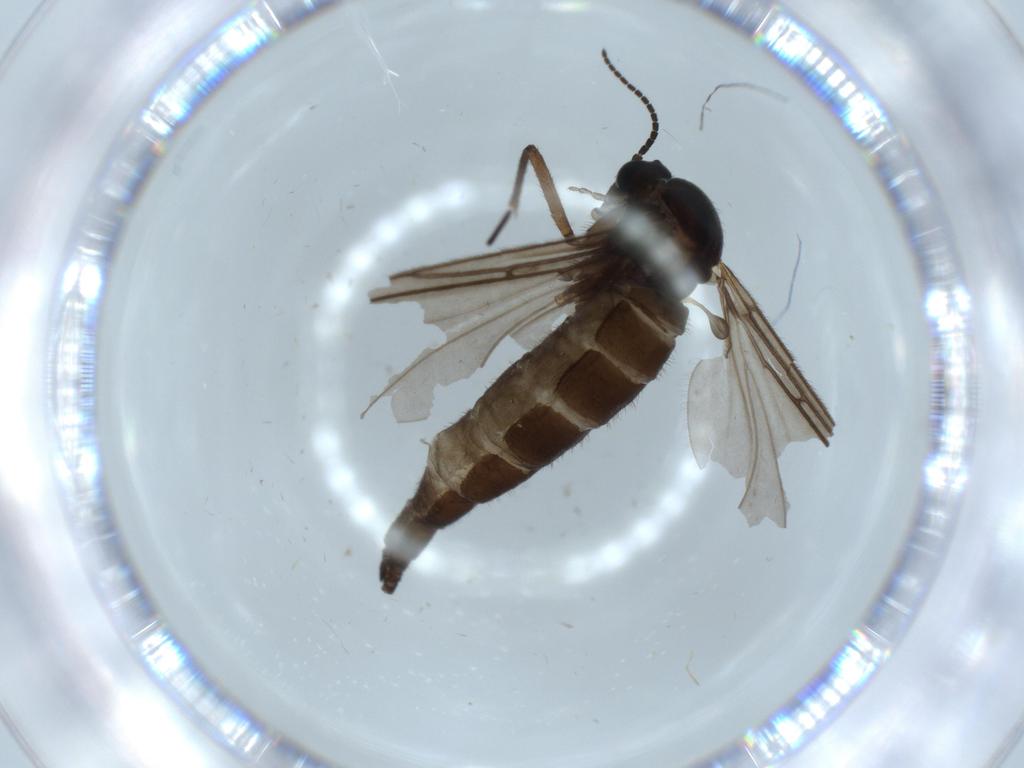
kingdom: Animalia
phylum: Arthropoda
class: Insecta
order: Diptera
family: Sciaridae
